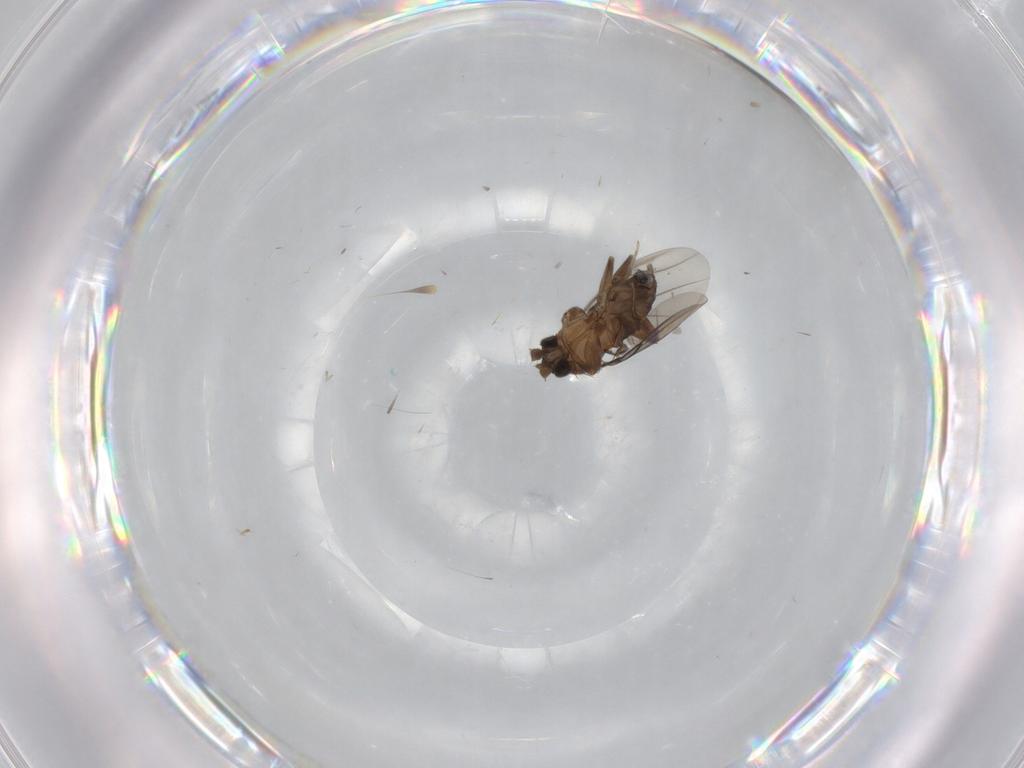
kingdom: Animalia
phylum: Arthropoda
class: Insecta
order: Diptera
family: Phoridae
